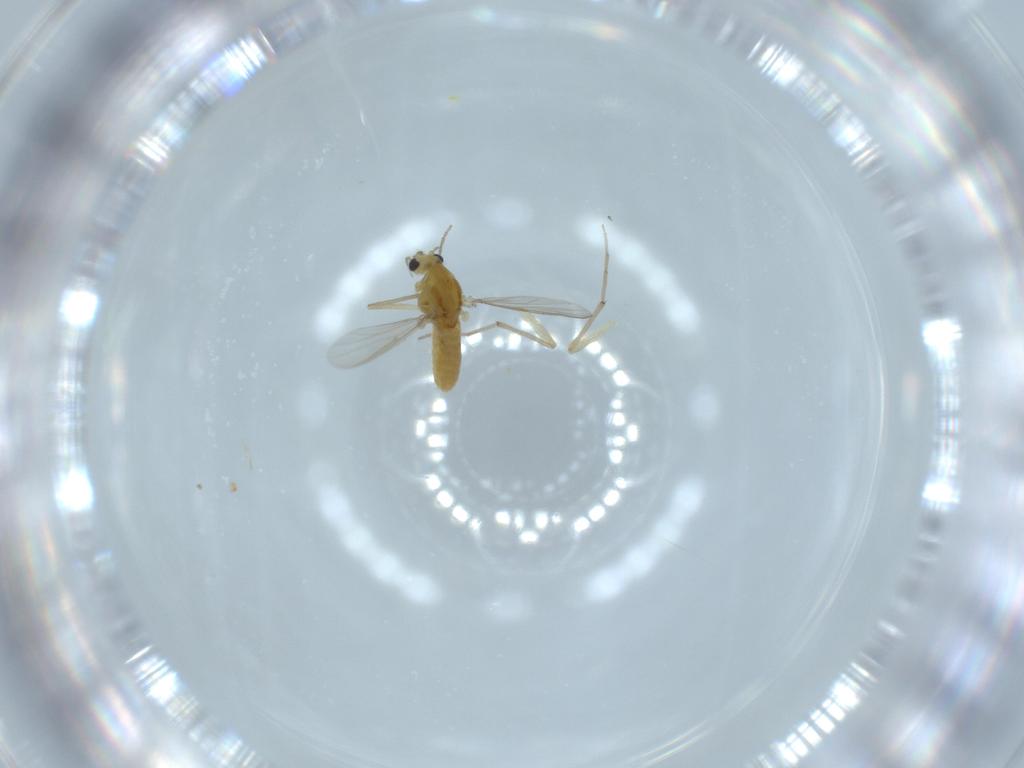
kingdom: Animalia
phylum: Arthropoda
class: Insecta
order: Diptera
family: Chironomidae
